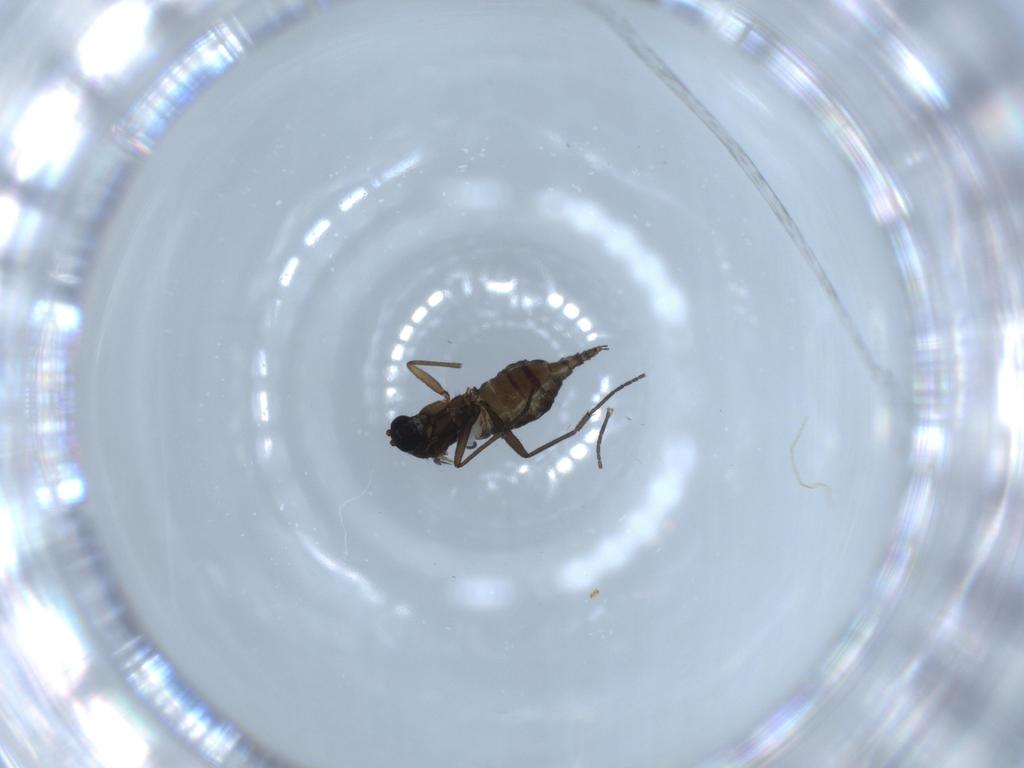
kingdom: Animalia
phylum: Arthropoda
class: Insecta
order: Diptera
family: Sciaridae
